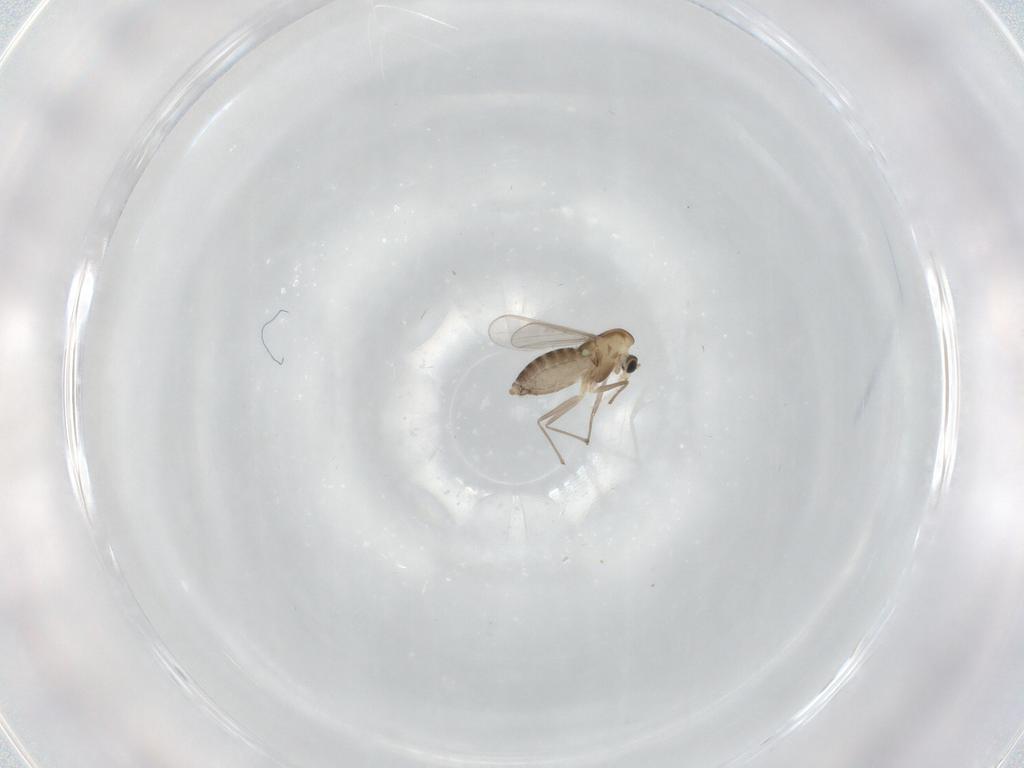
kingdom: Animalia
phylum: Arthropoda
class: Insecta
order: Diptera
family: Chironomidae
